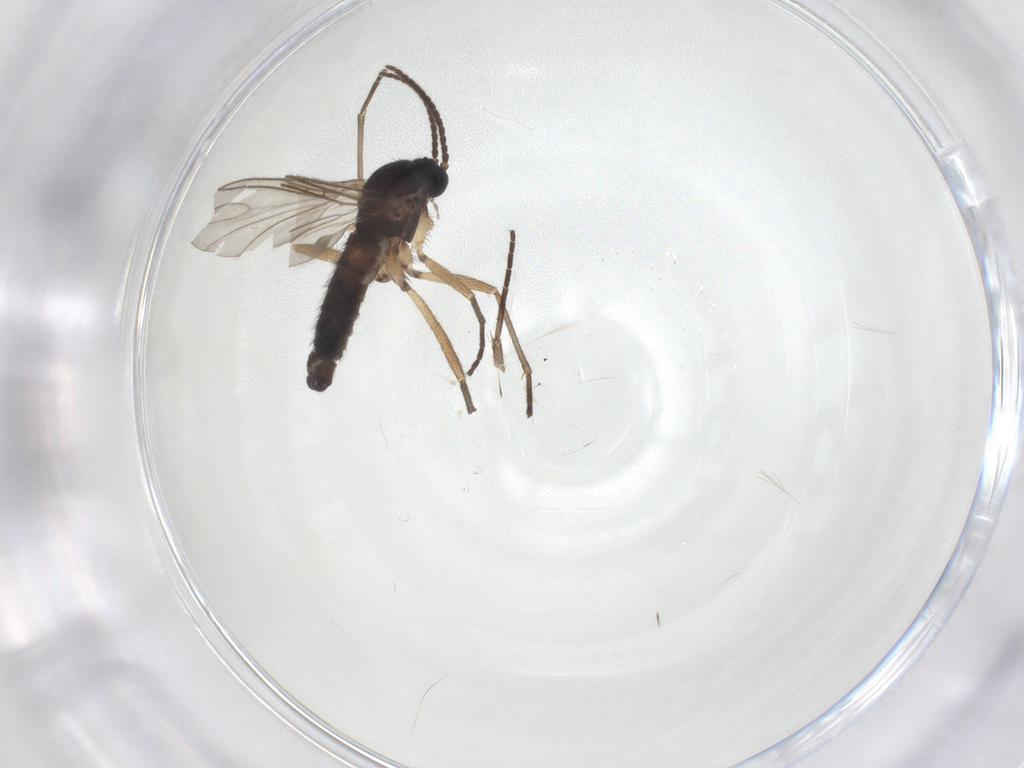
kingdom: Animalia
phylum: Arthropoda
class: Insecta
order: Diptera
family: Sciaridae
